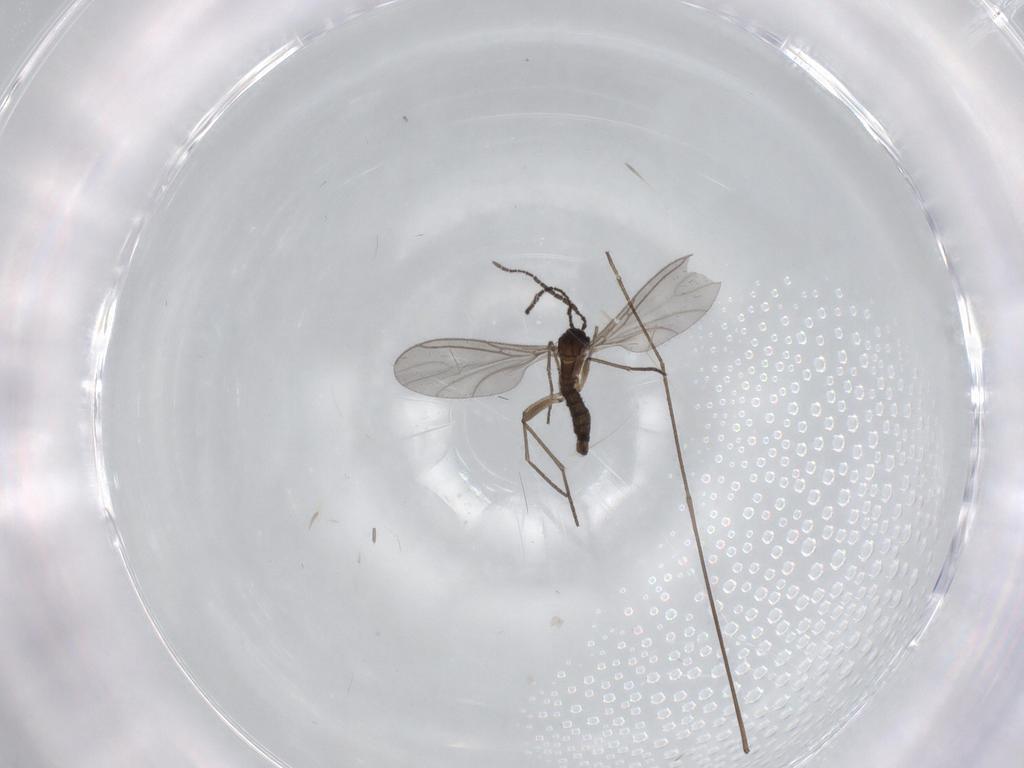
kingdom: Animalia
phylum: Arthropoda
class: Insecta
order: Diptera
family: Sciaridae
